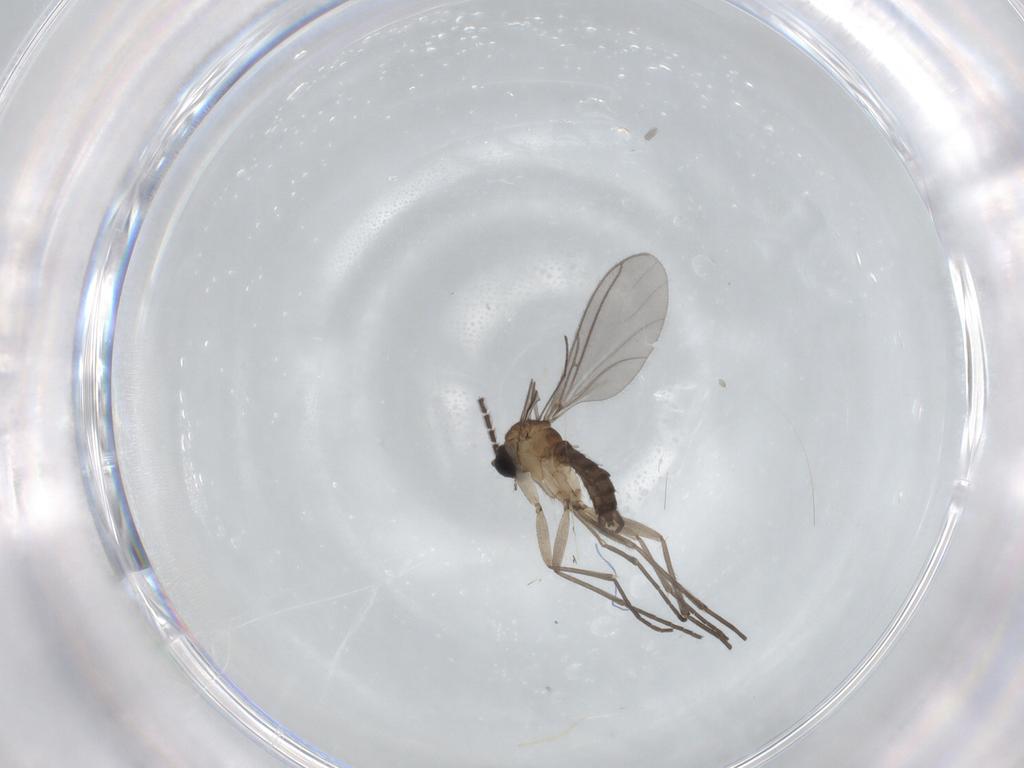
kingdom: Animalia
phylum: Arthropoda
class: Insecta
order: Diptera
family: Sciaridae
